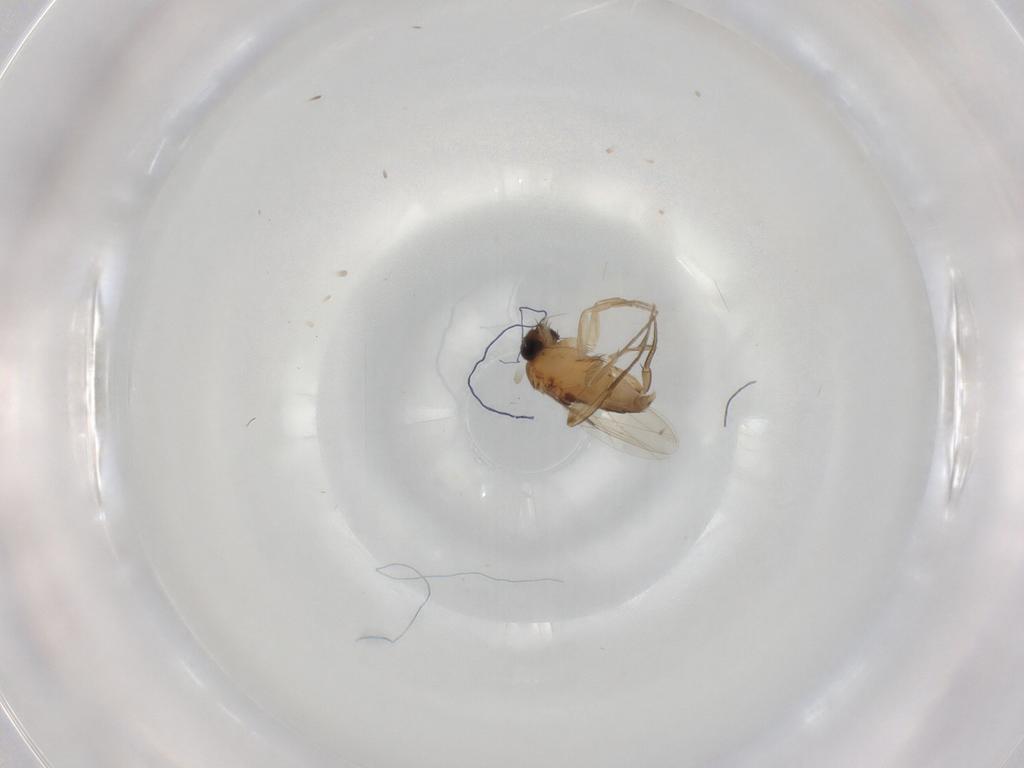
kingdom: Animalia
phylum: Arthropoda
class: Insecta
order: Diptera
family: Phoridae
